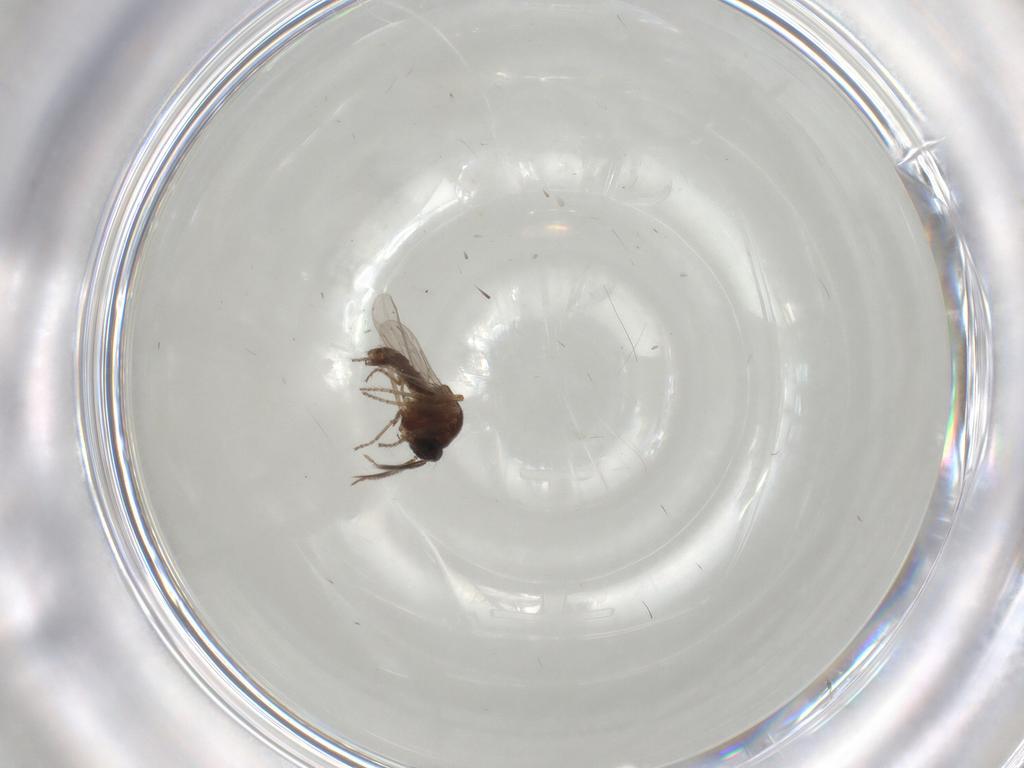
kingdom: Animalia
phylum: Arthropoda
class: Insecta
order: Diptera
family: Ceratopogonidae
